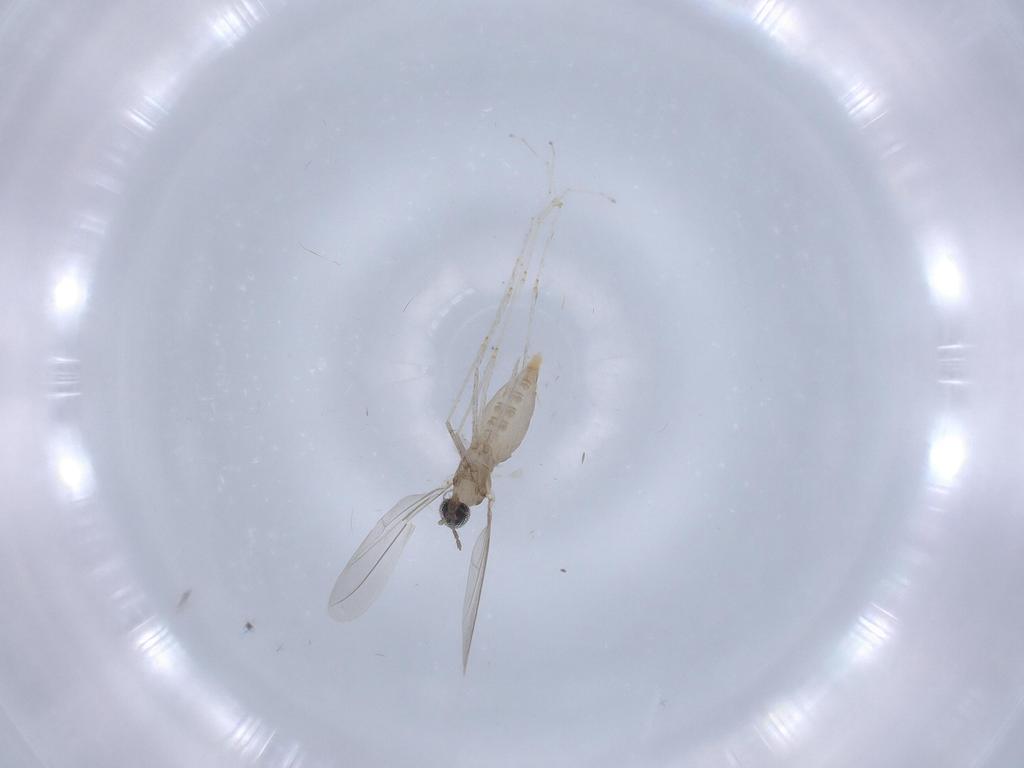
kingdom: Animalia
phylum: Arthropoda
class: Insecta
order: Diptera
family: Cecidomyiidae
